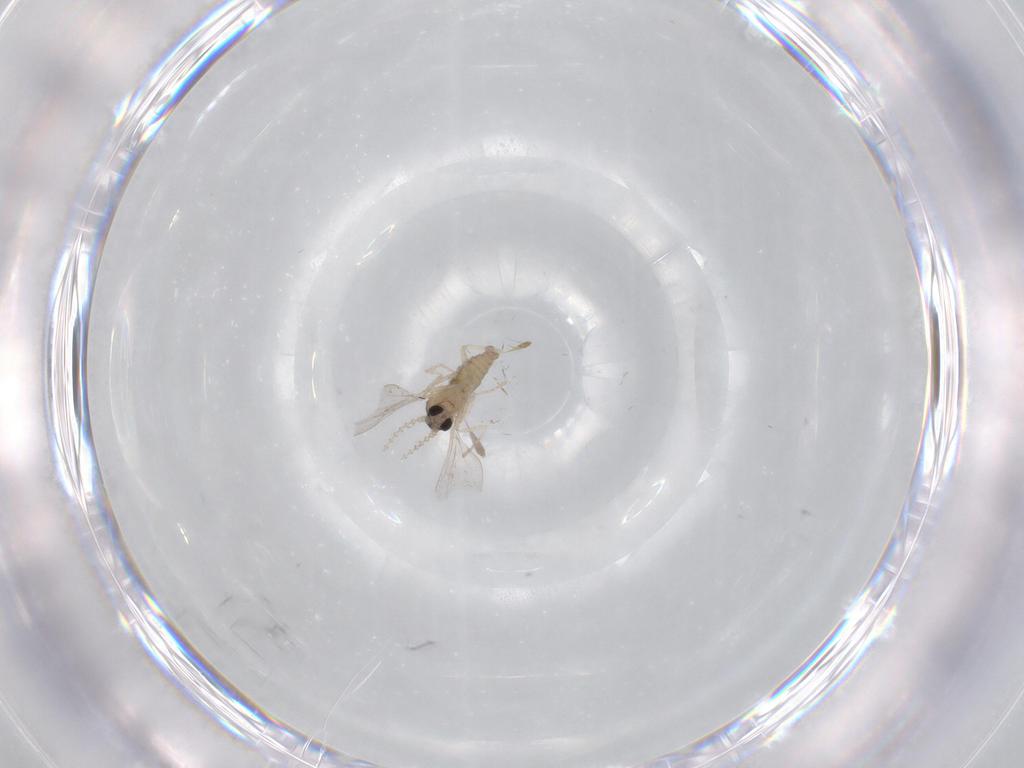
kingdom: Animalia
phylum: Arthropoda
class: Insecta
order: Diptera
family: Cecidomyiidae
